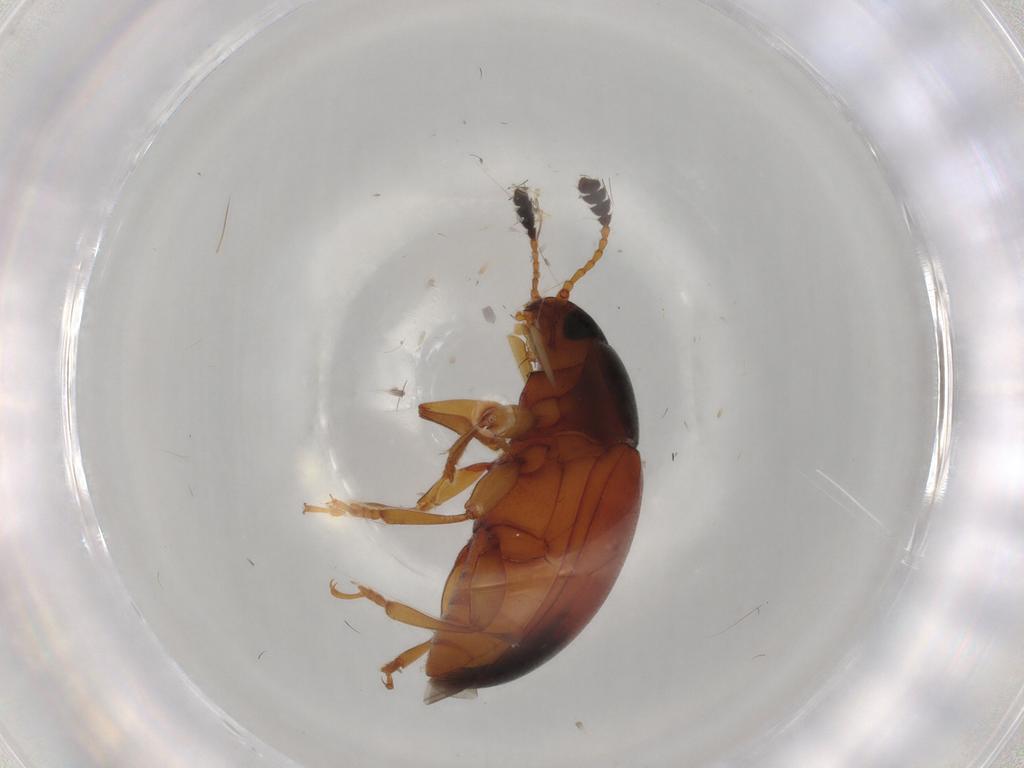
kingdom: Animalia
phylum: Arthropoda
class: Insecta
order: Coleoptera
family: Erotylidae
